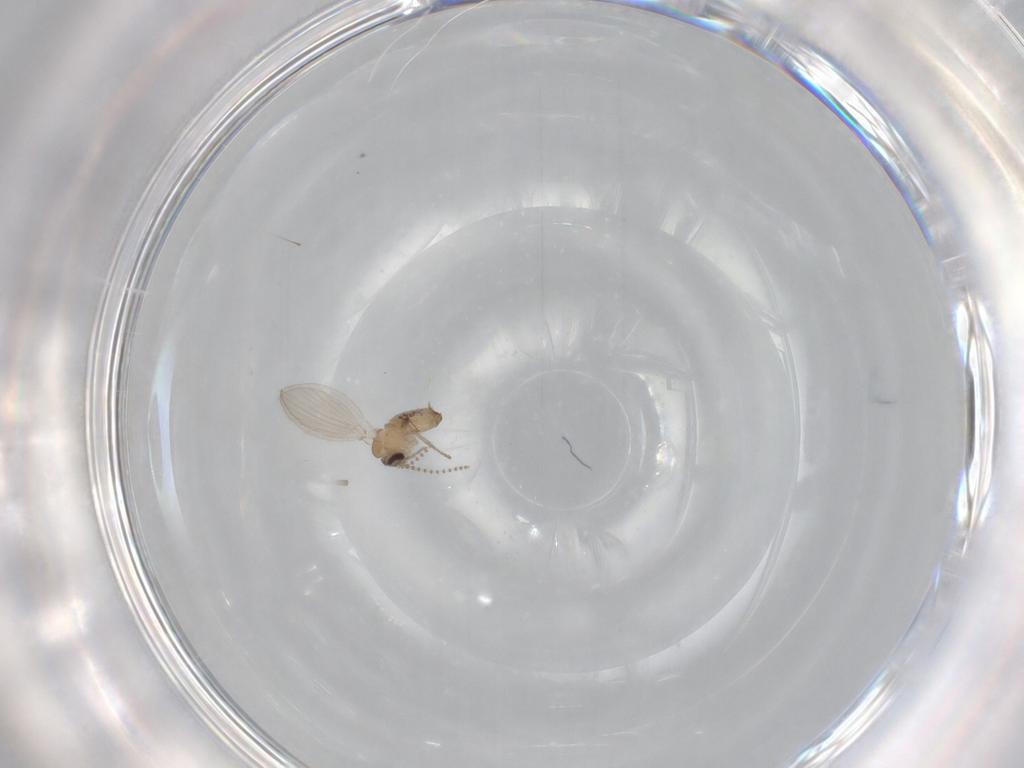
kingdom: Animalia
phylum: Arthropoda
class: Insecta
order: Diptera
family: Psychodidae
